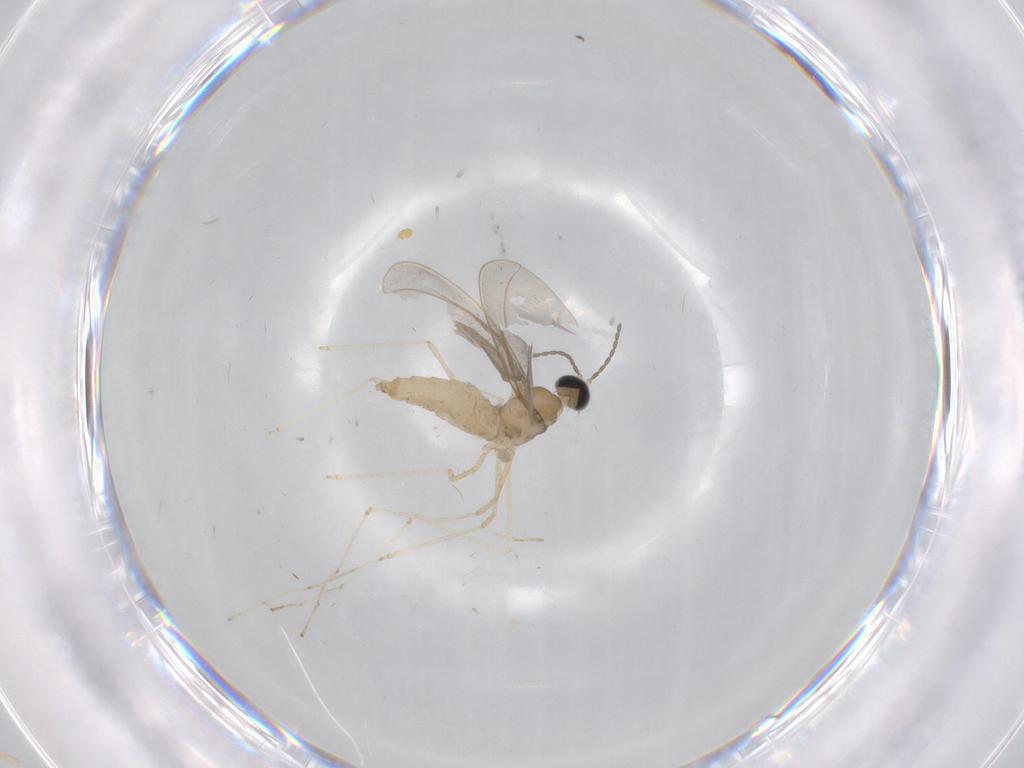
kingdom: Animalia
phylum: Arthropoda
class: Insecta
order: Diptera
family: Cecidomyiidae
